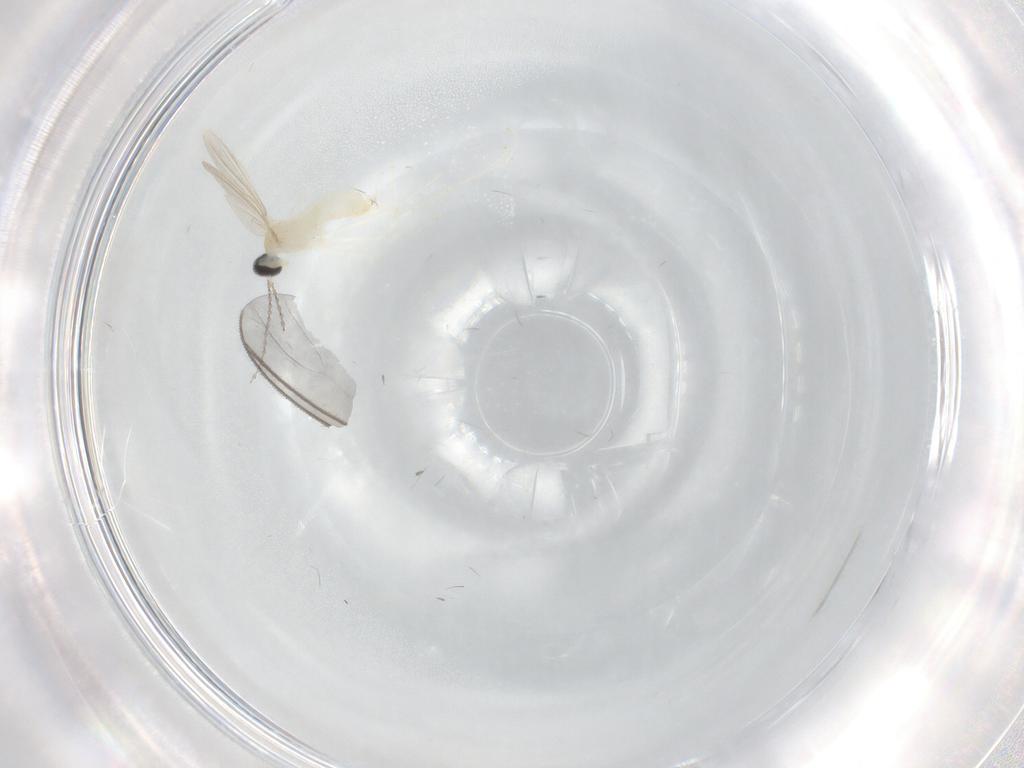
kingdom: Animalia
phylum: Arthropoda
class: Insecta
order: Diptera
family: Cecidomyiidae
